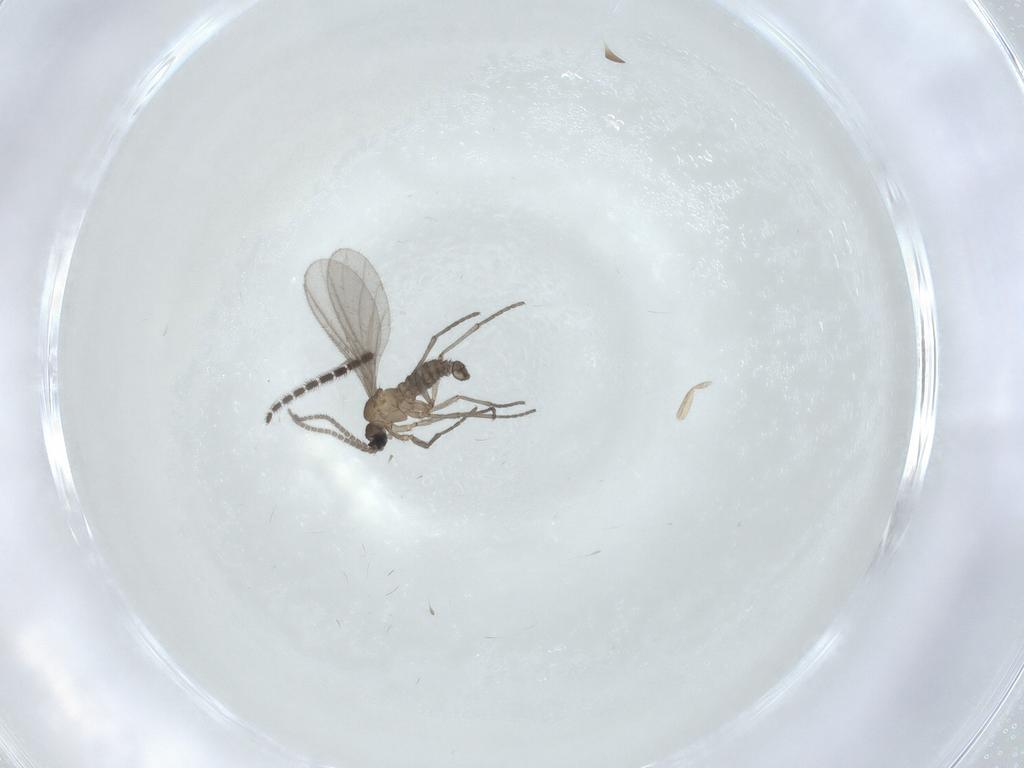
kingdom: Animalia
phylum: Arthropoda
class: Insecta
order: Diptera
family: Sciaridae
